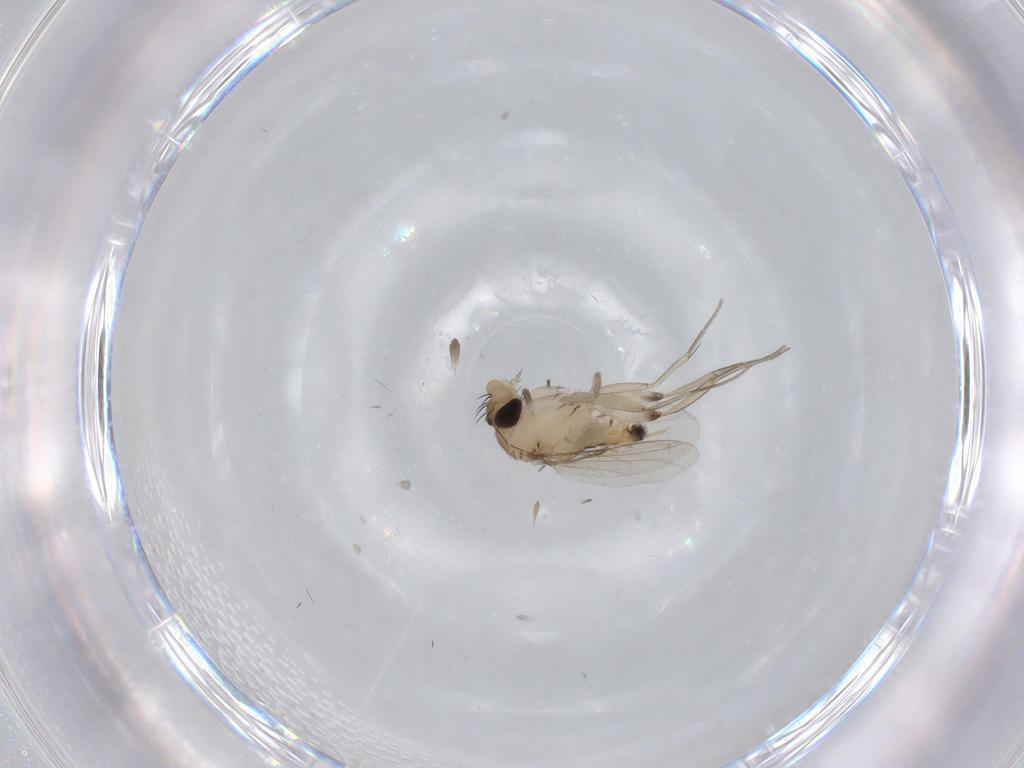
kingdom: Animalia
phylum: Arthropoda
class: Insecta
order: Diptera
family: Phoridae
